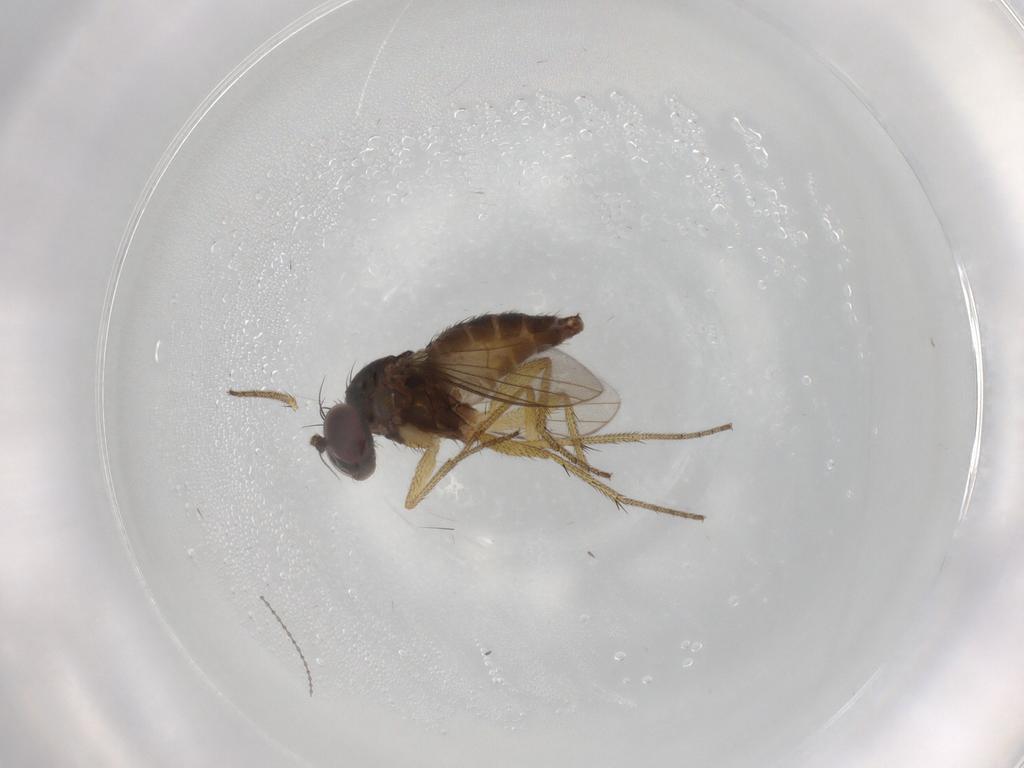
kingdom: Animalia
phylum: Arthropoda
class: Insecta
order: Diptera
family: Dolichopodidae
